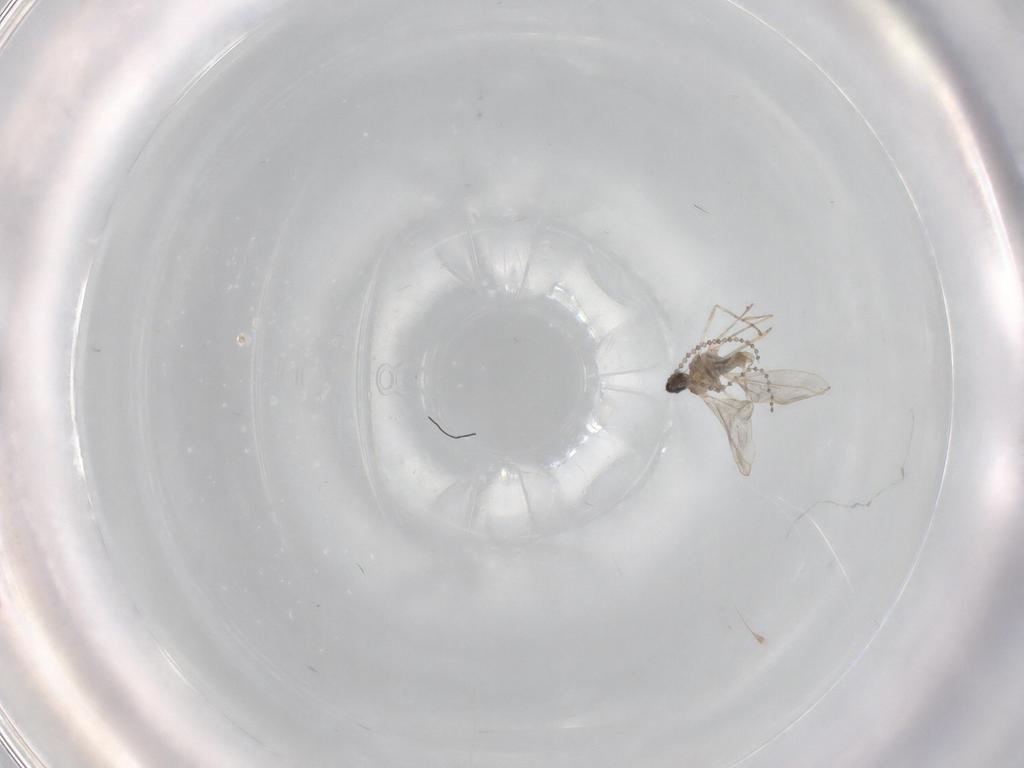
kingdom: Animalia
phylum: Arthropoda
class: Insecta
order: Diptera
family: Cecidomyiidae
